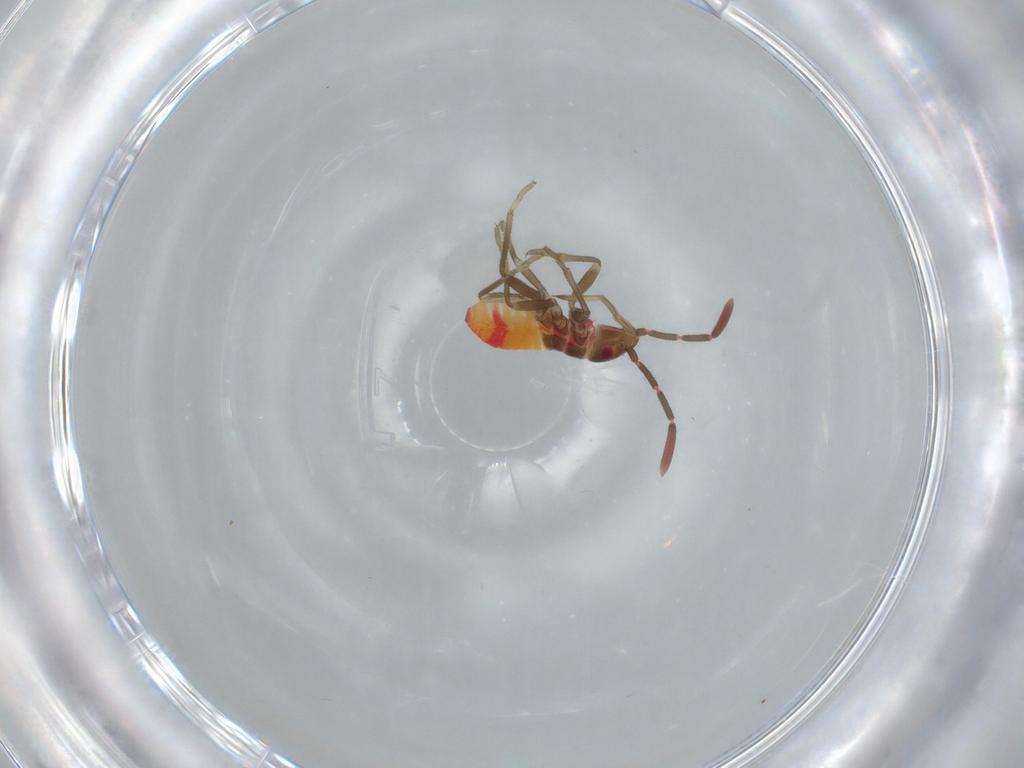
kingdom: Animalia
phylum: Arthropoda
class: Insecta
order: Hemiptera
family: Rhyparochromidae
